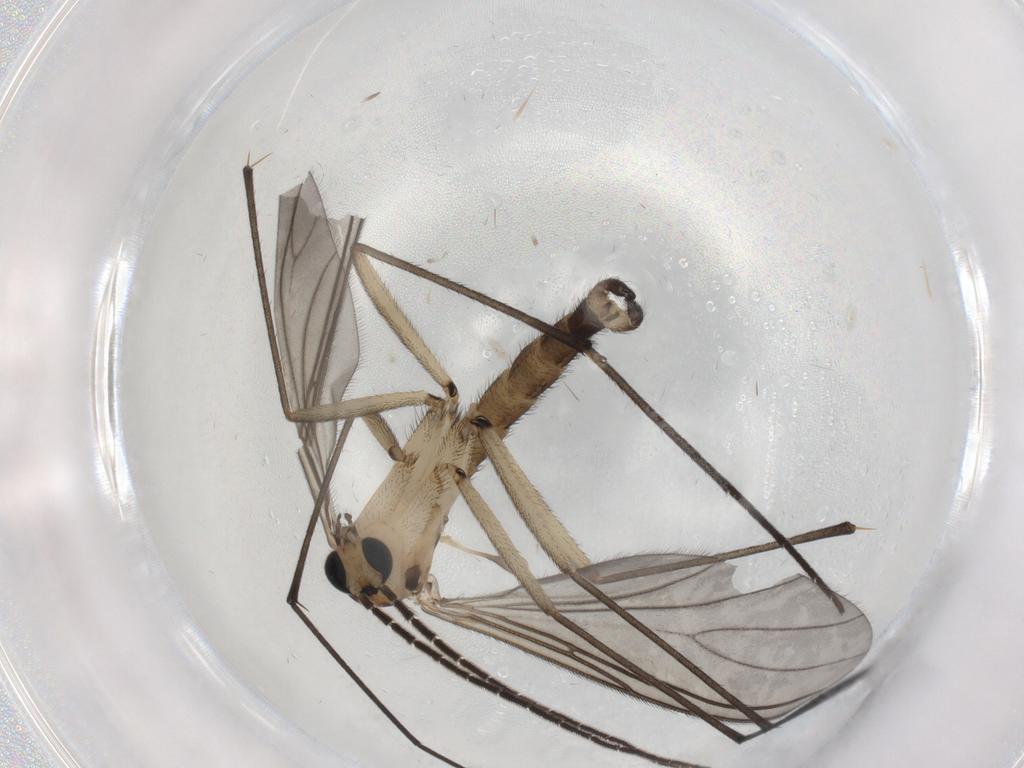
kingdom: Animalia
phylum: Arthropoda
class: Insecta
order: Diptera
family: Sciaridae
